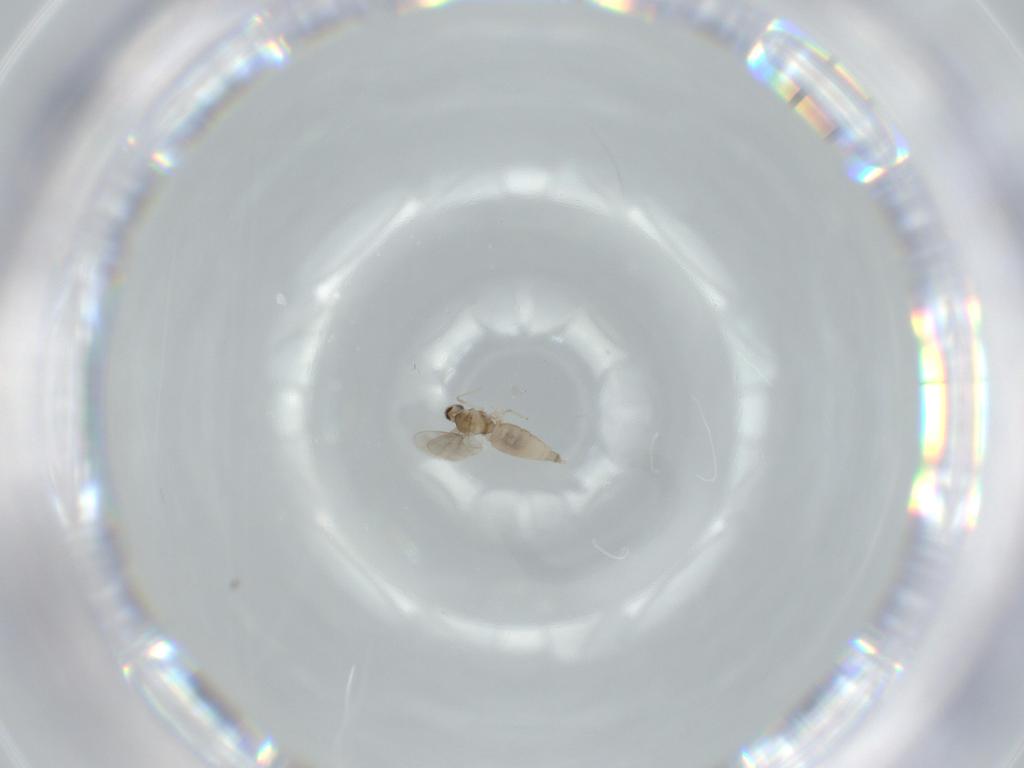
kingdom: Animalia
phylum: Arthropoda
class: Insecta
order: Diptera
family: Cecidomyiidae
